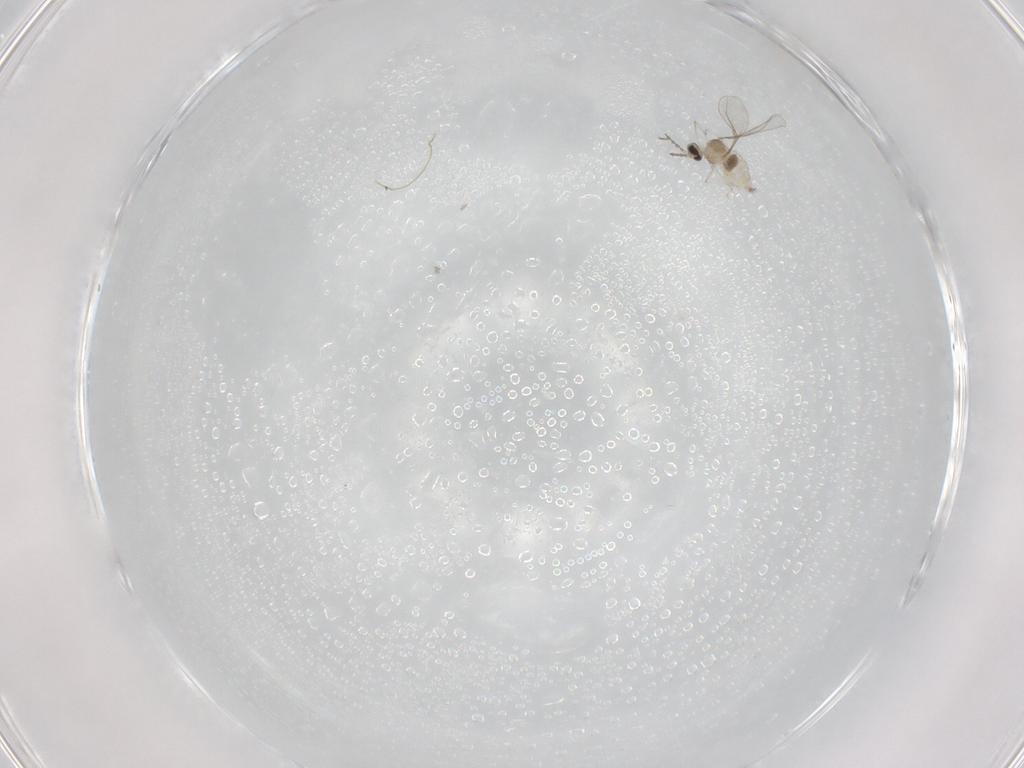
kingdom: Animalia
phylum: Arthropoda
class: Insecta
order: Diptera
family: Cecidomyiidae
